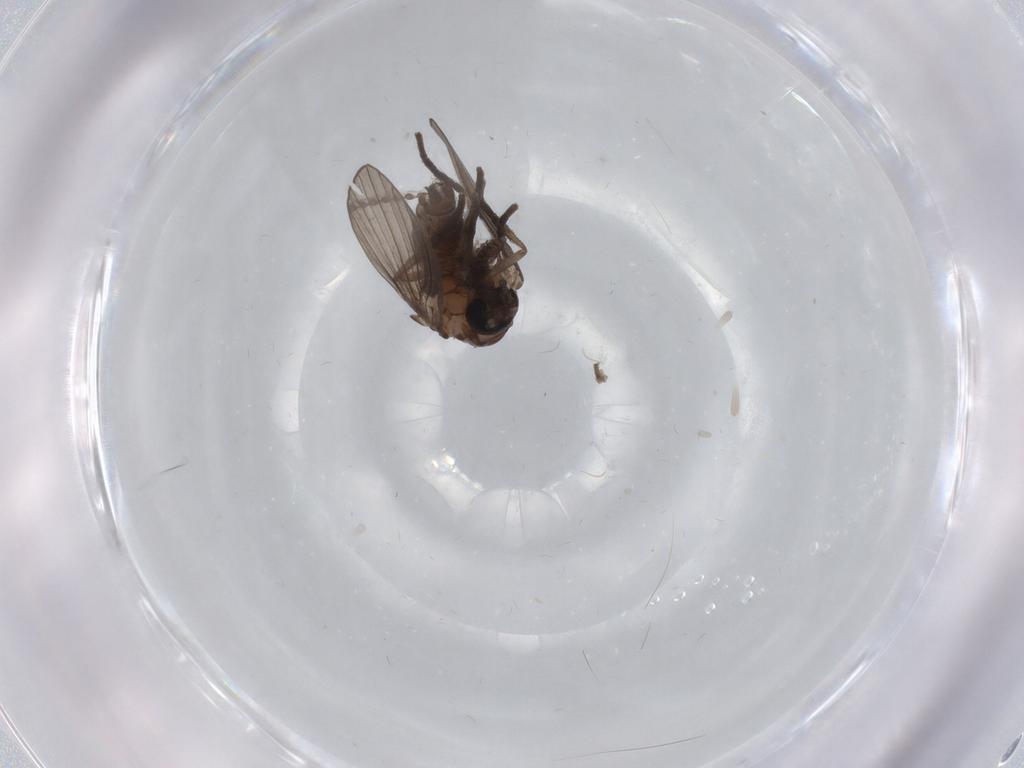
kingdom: Animalia
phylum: Arthropoda
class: Insecta
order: Diptera
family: Psychodidae
